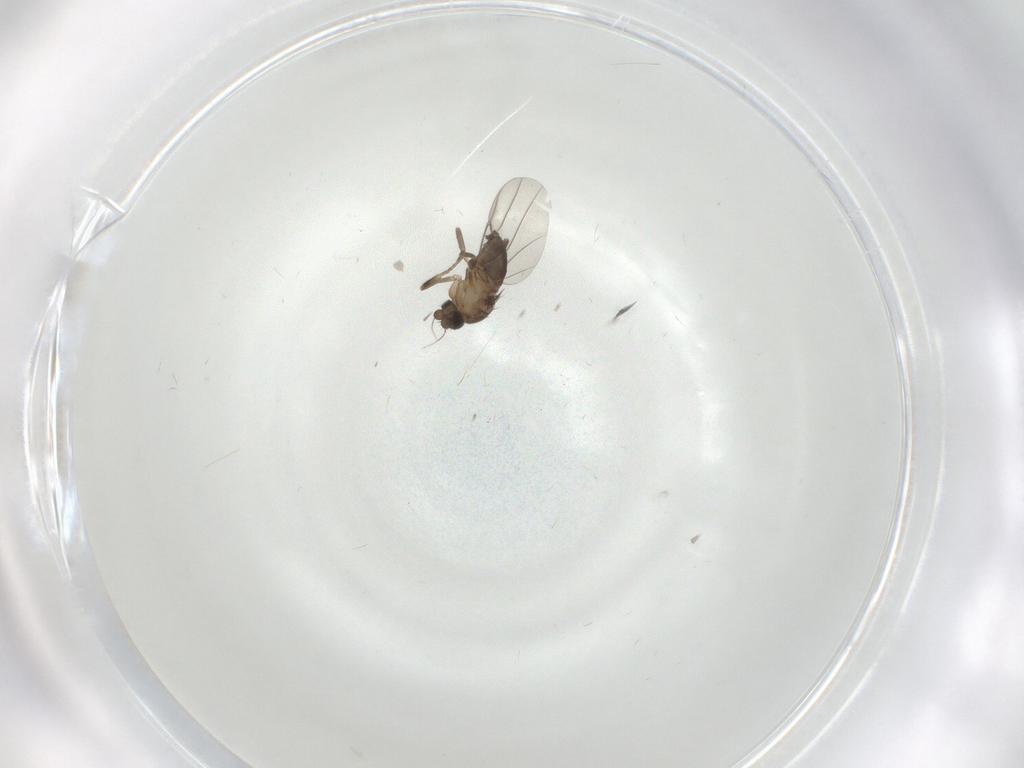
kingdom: Animalia
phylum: Arthropoda
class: Insecta
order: Diptera
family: Phoridae
